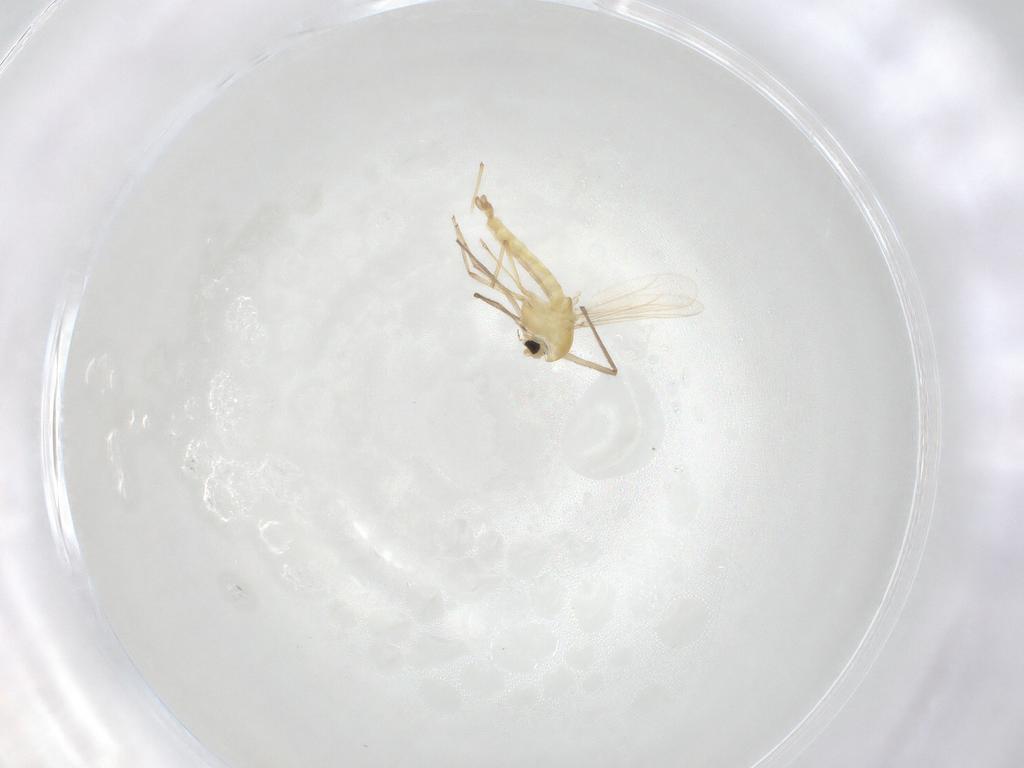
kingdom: Animalia
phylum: Arthropoda
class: Insecta
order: Diptera
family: Chironomidae
